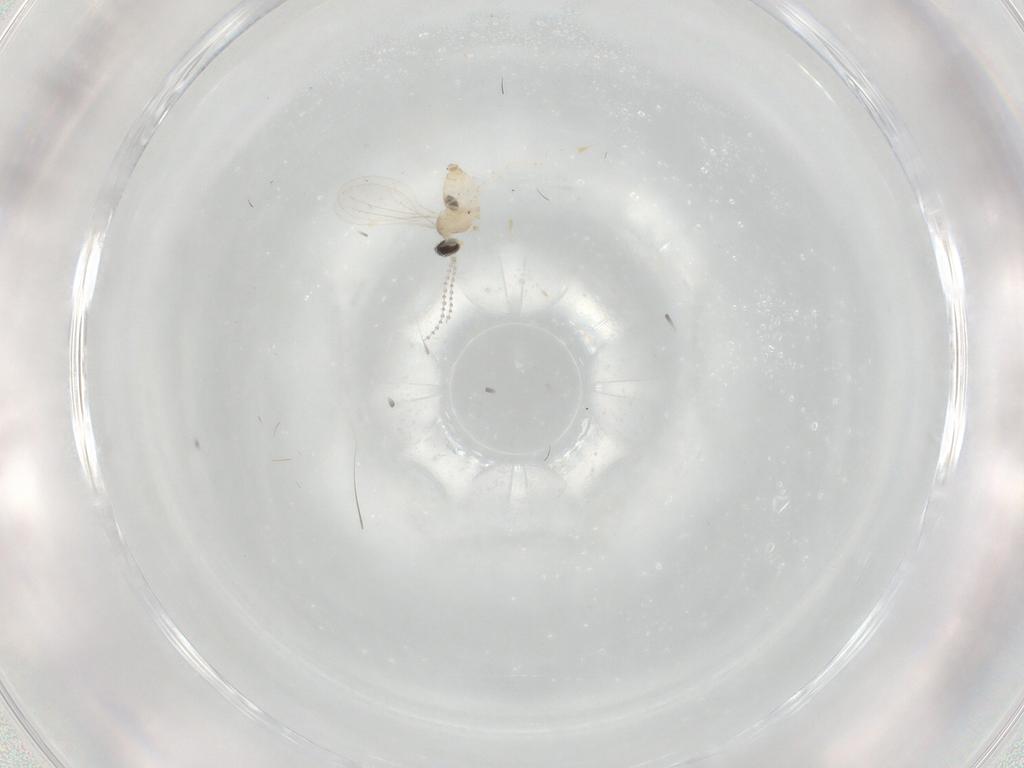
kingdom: Animalia
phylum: Arthropoda
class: Insecta
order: Diptera
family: Cecidomyiidae
